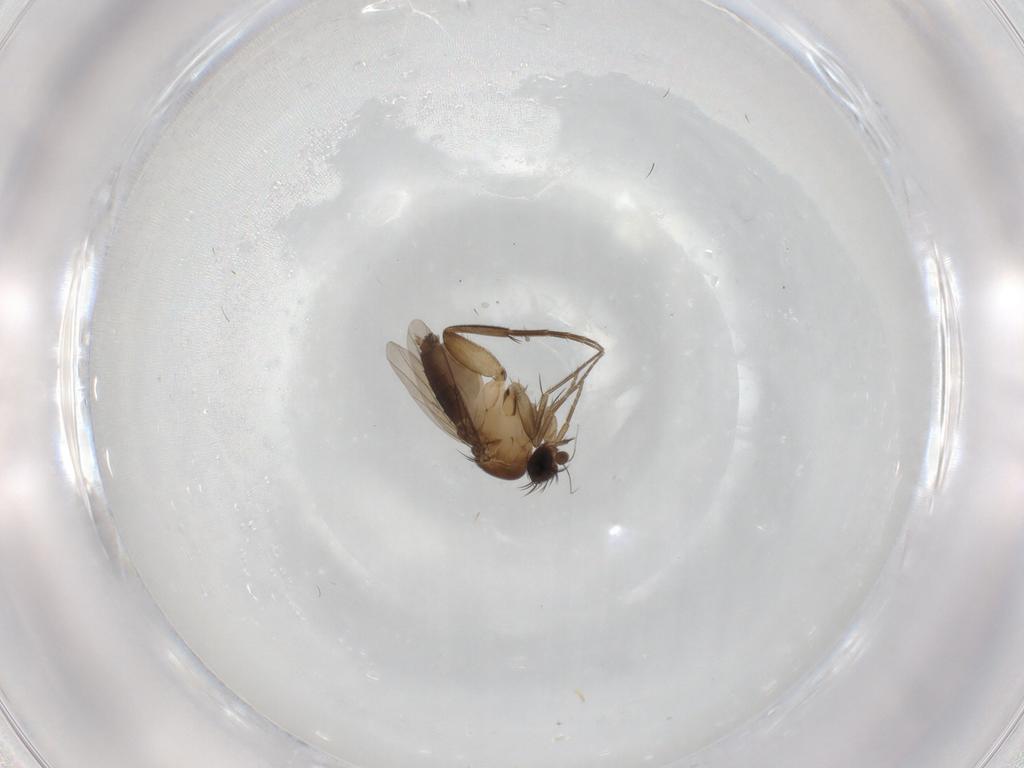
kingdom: Animalia
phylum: Arthropoda
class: Insecta
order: Diptera
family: Phoridae
